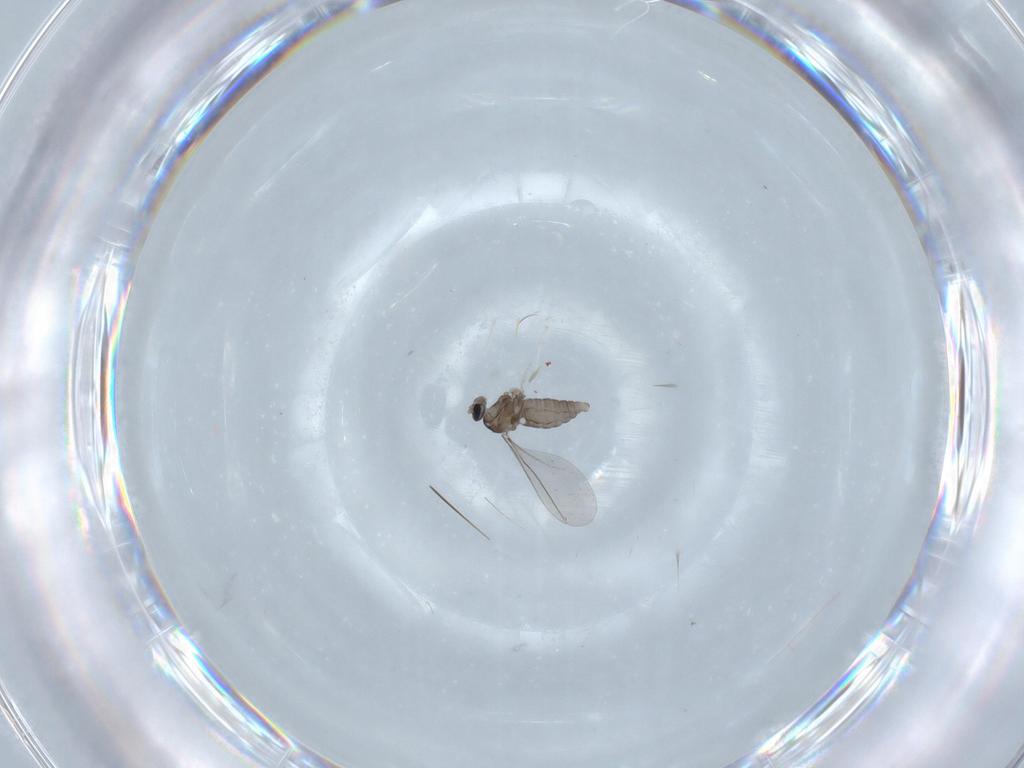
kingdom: Animalia
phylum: Arthropoda
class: Insecta
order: Diptera
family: Cecidomyiidae
